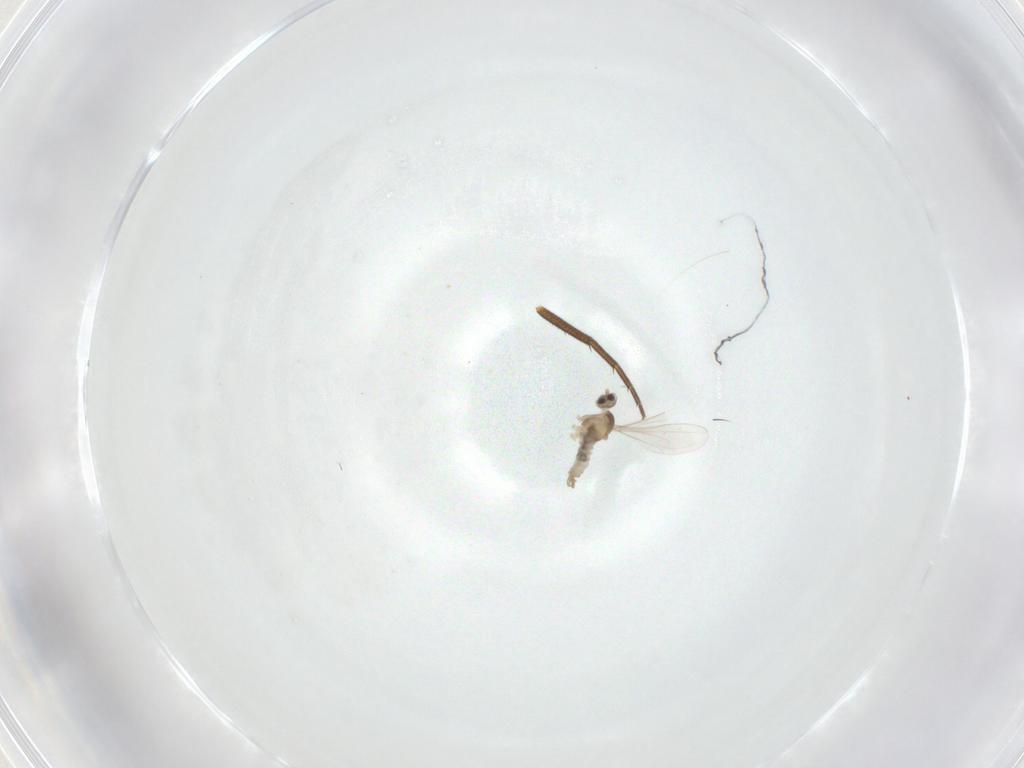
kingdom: Animalia
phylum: Arthropoda
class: Insecta
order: Diptera
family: Phoridae
